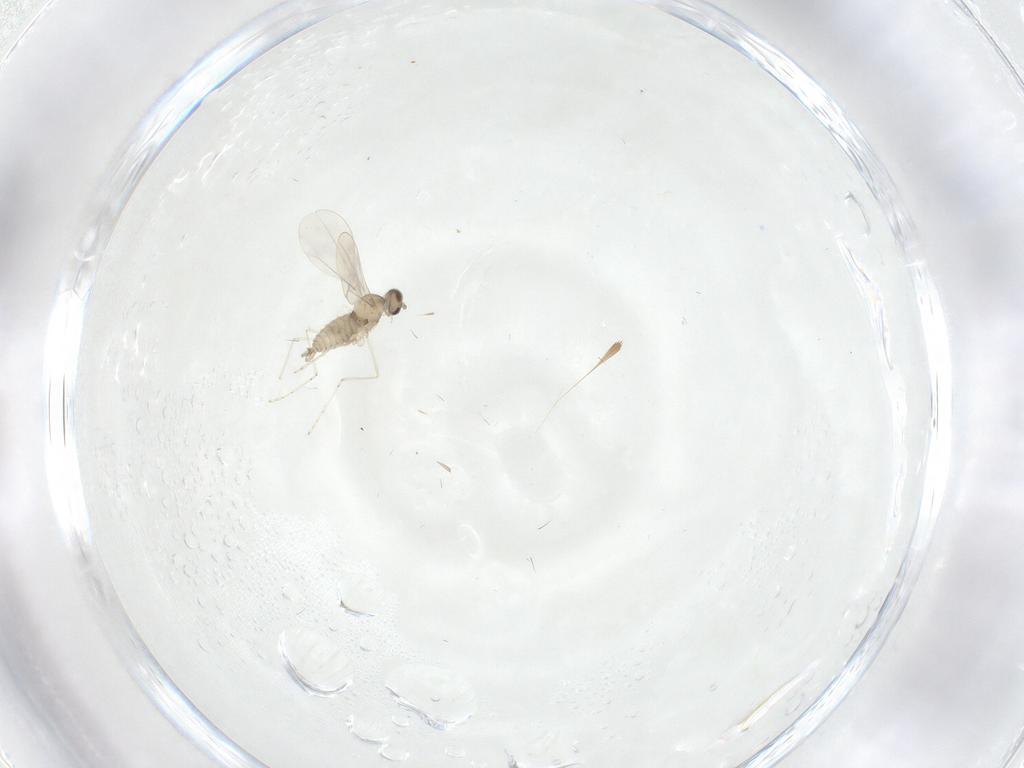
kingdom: Animalia
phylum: Arthropoda
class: Insecta
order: Diptera
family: Cecidomyiidae
